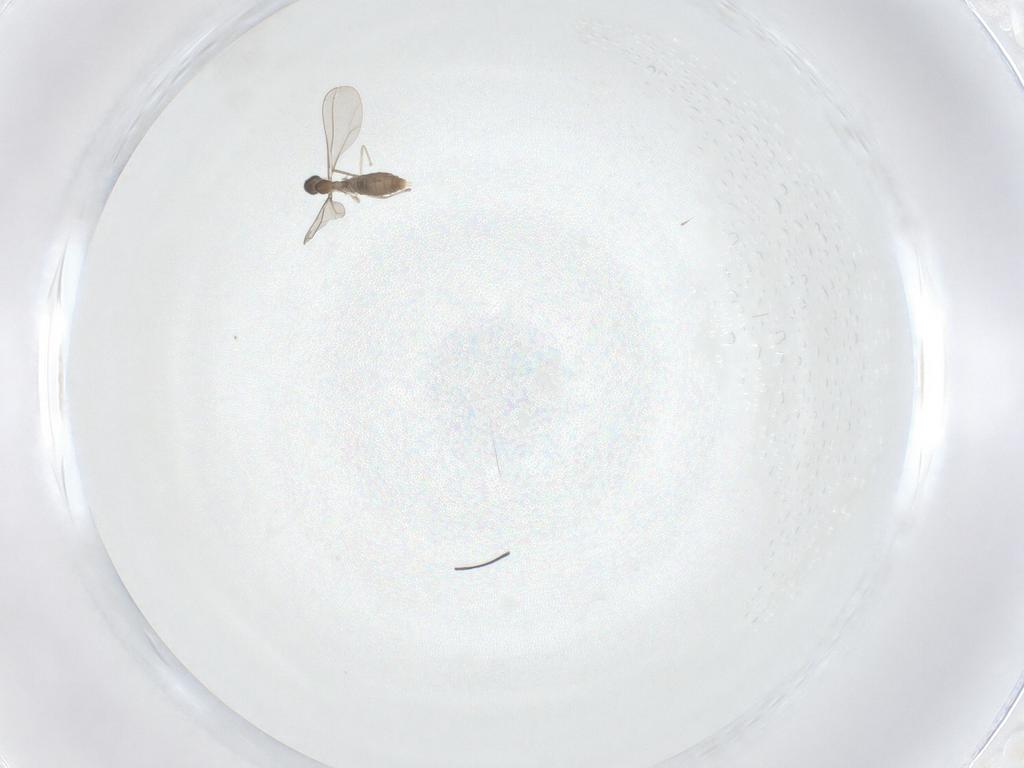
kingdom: Animalia
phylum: Arthropoda
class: Insecta
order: Diptera
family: Cecidomyiidae
